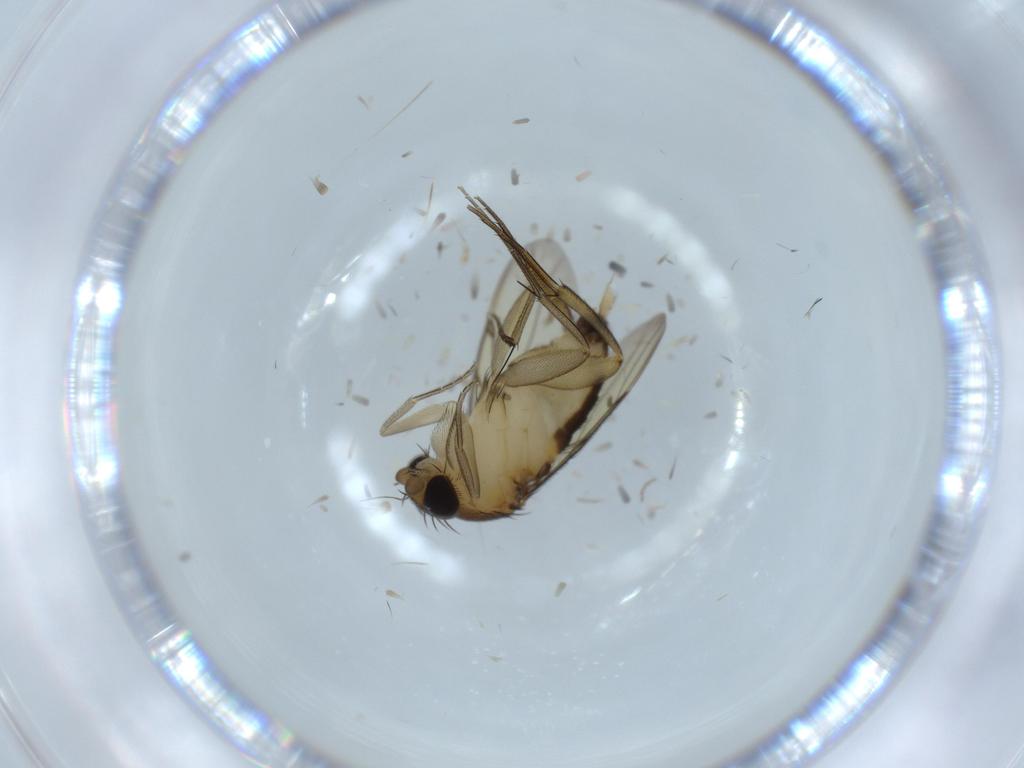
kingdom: Animalia
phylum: Arthropoda
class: Insecta
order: Diptera
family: Phoridae
